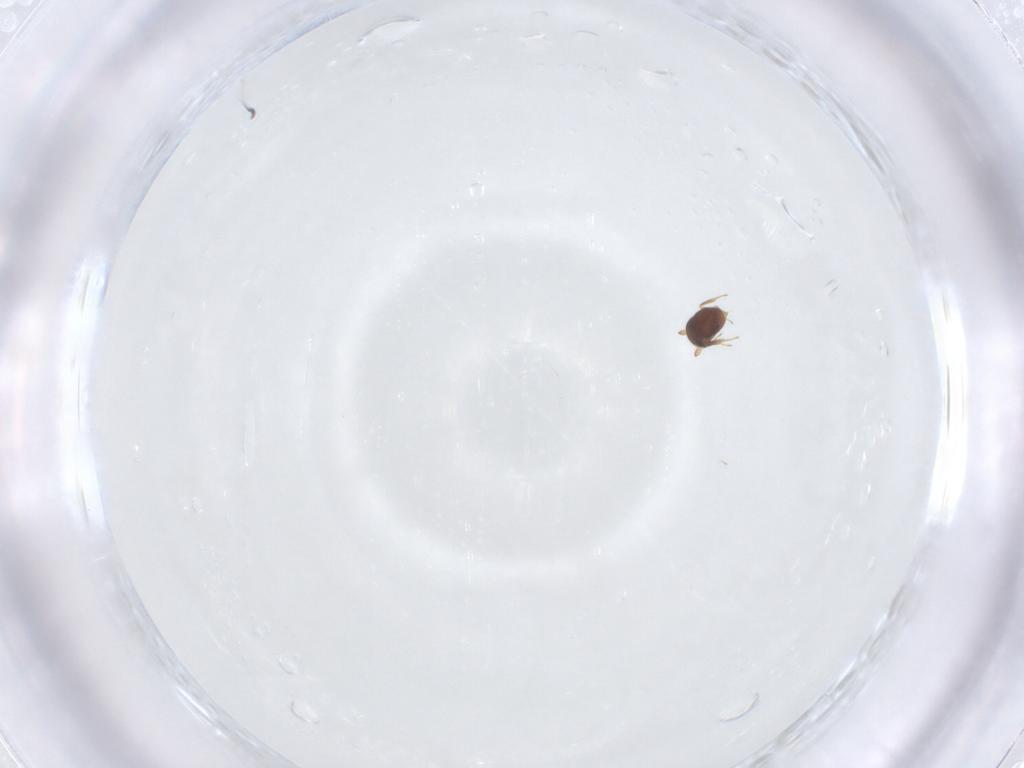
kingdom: Animalia
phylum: Arthropoda
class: Insecta
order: Hymenoptera
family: Scelionidae
